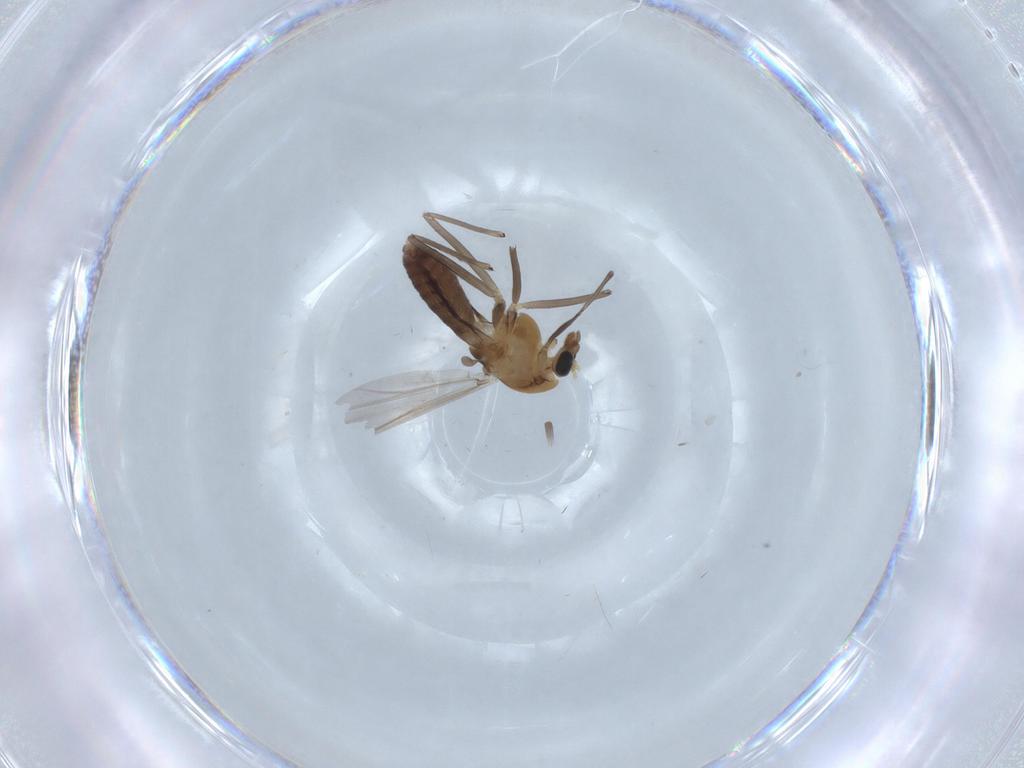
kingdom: Animalia
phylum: Arthropoda
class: Insecta
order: Diptera
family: Chironomidae
